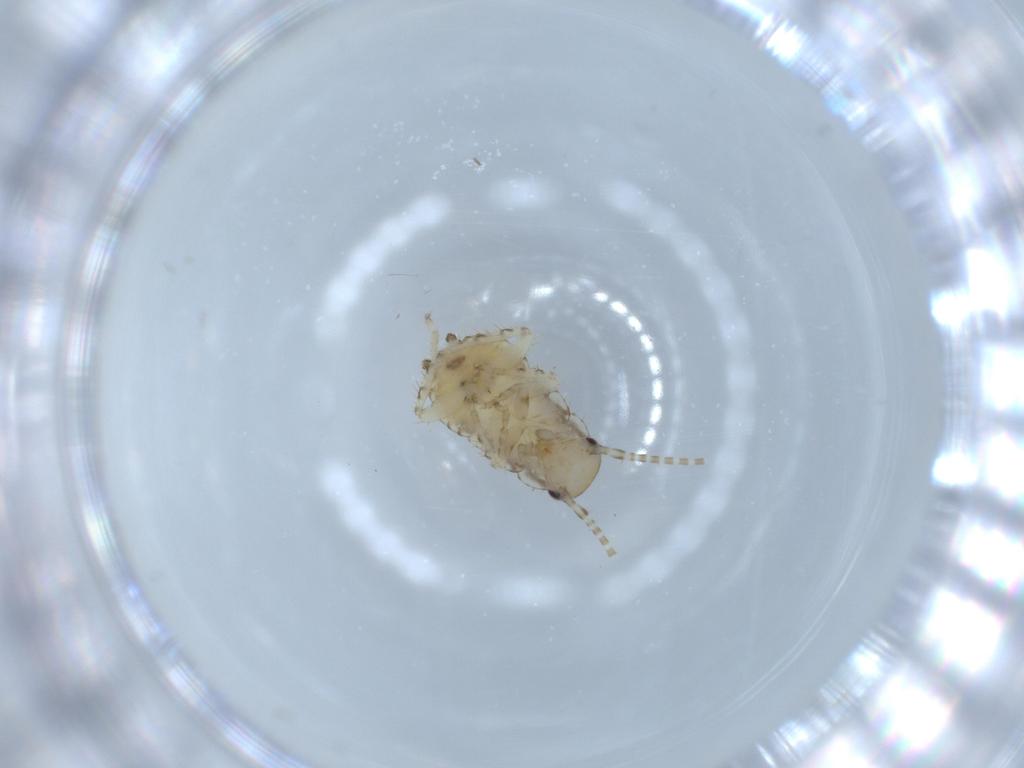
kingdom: Animalia
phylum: Arthropoda
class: Insecta
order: Blattodea
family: Ectobiidae
